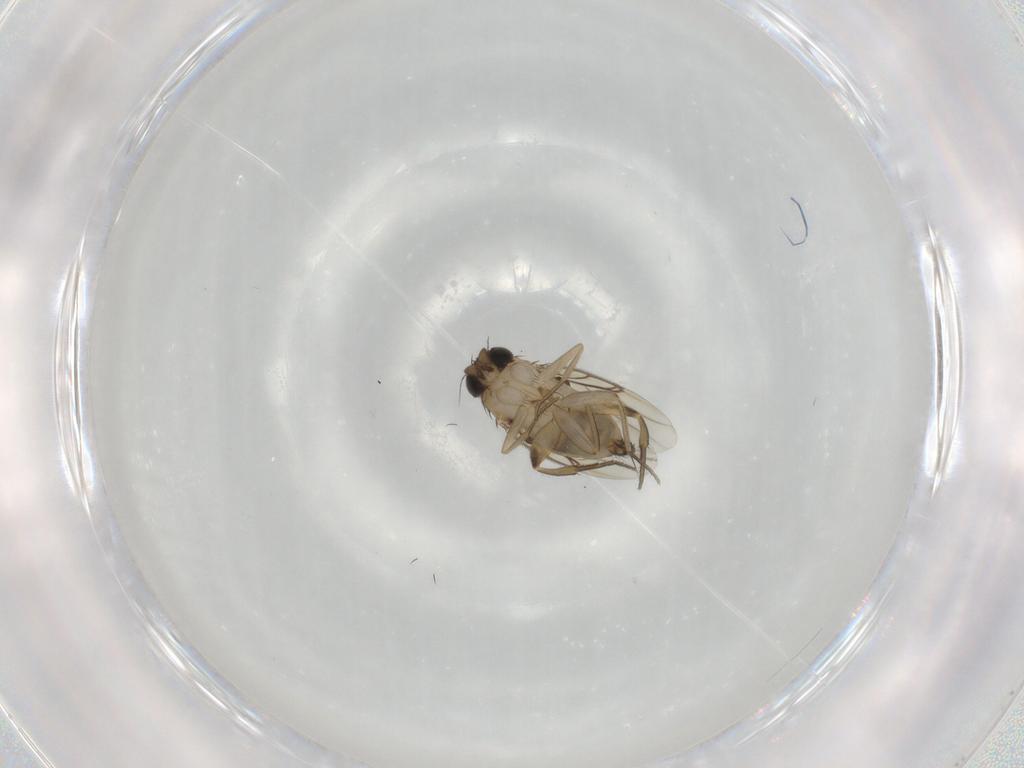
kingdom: Animalia
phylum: Arthropoda
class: Insecta
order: Diptera
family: Phoridae
